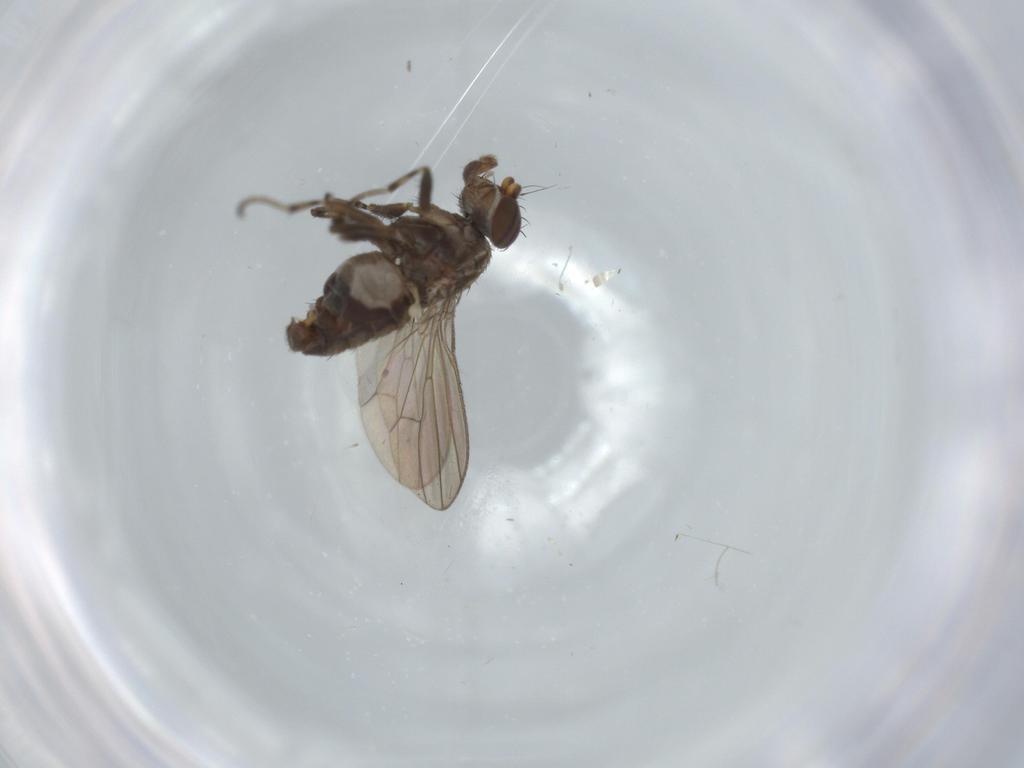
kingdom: Animalia
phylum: Arthropoda
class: Insecta
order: Diptera
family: Heleomyzidae
